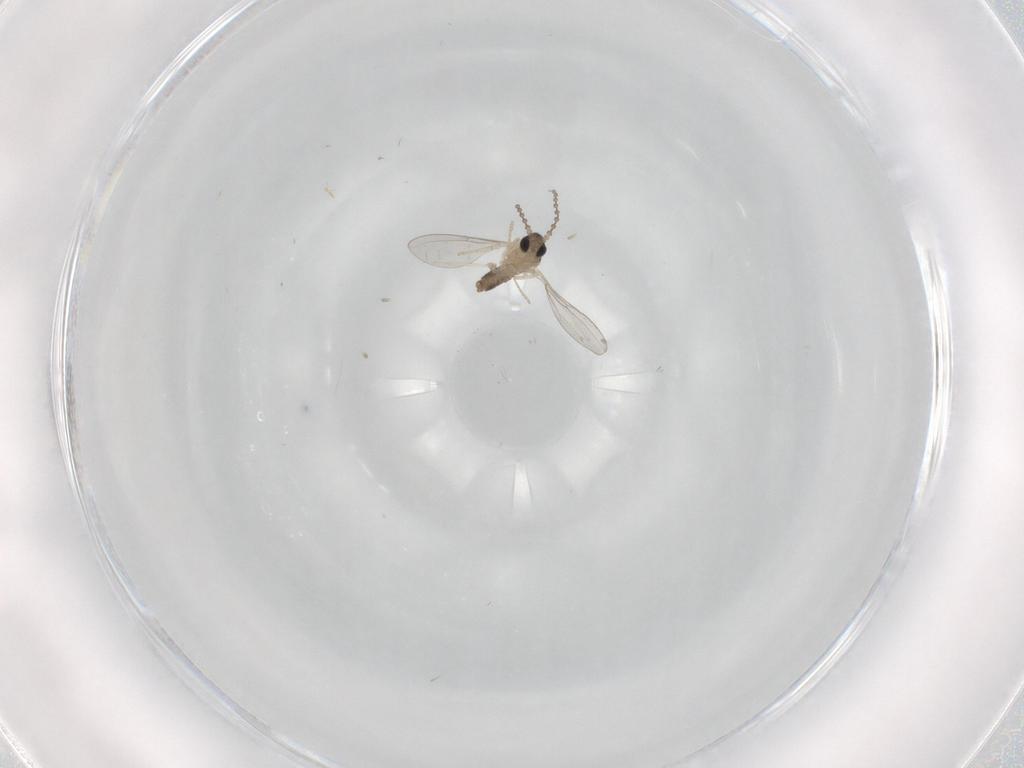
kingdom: Animalia
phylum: Arthropoda
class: Insecta
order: Diptera
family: Cecidomyiidae
